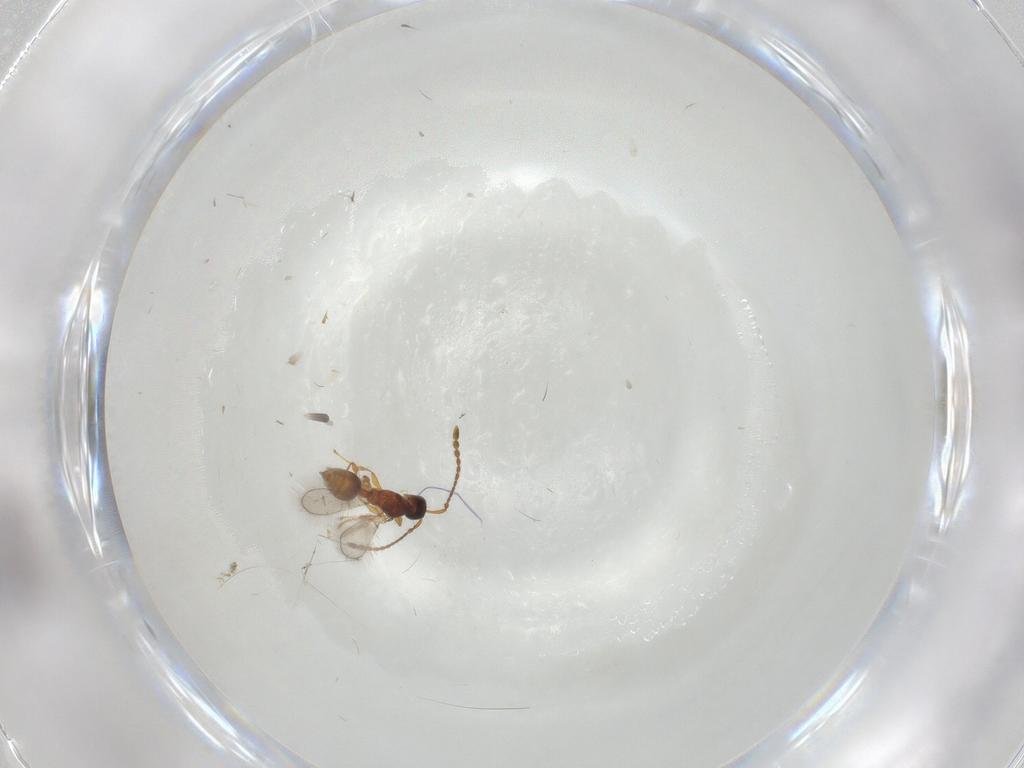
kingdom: Animalia
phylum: Arthropoda
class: Insecta
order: Hymenoptera
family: Diapriidae
